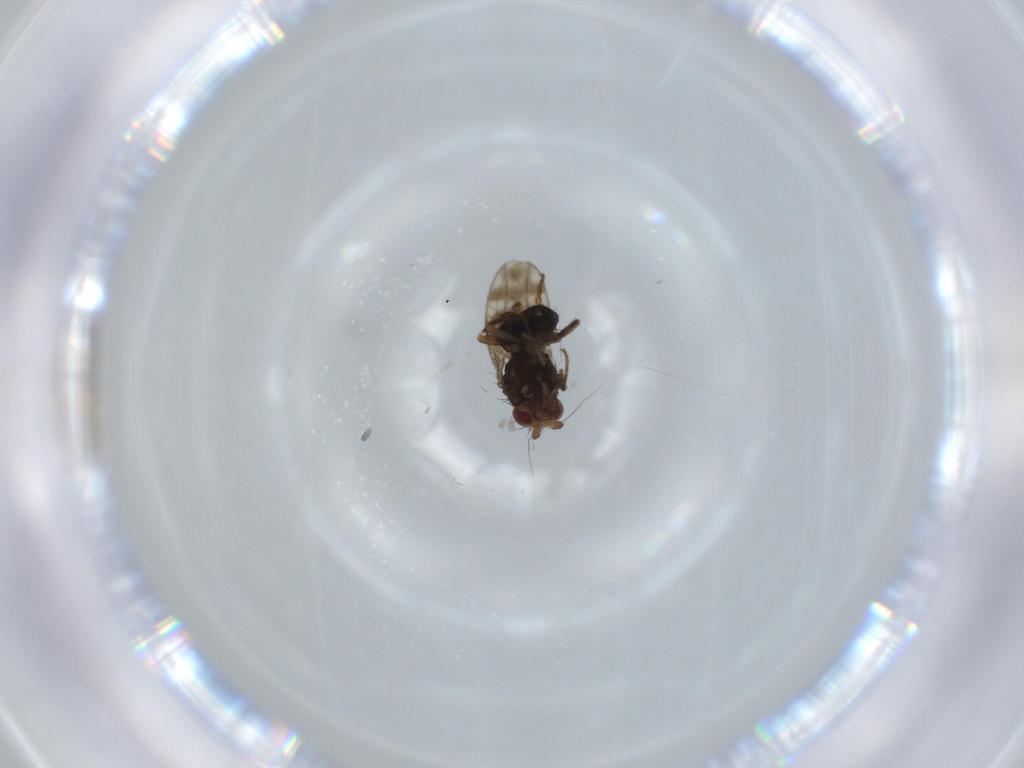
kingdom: Animalia
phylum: Arthropoda
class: Insecta
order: Diptera
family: Sphaeroceridae
